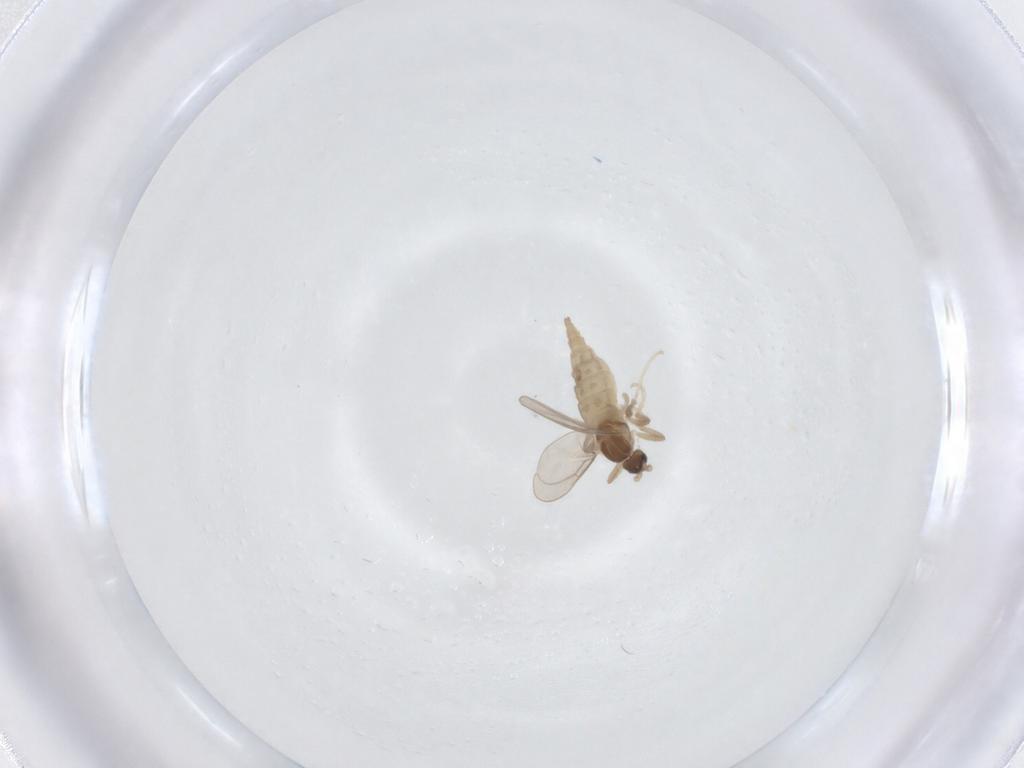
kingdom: Animalia
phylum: Arthropoda
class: Insecta
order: Diptera
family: Cecidomyiidae
